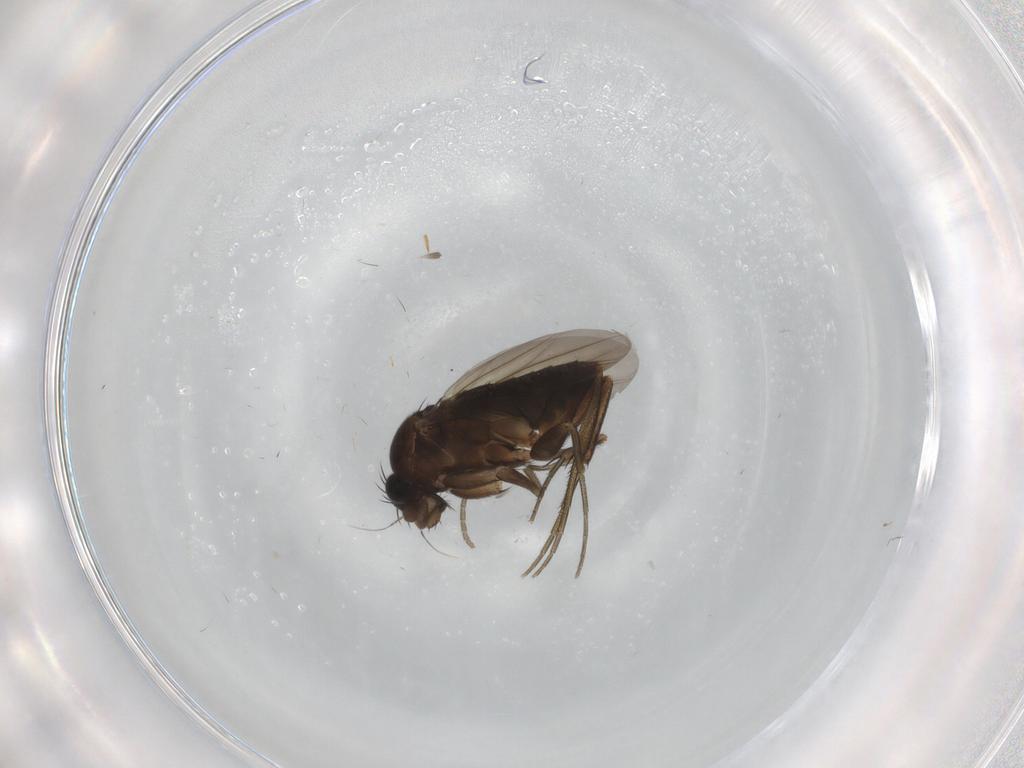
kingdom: Animalia
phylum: Arthropoda
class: Insecta
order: Diptera
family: Phoridae
